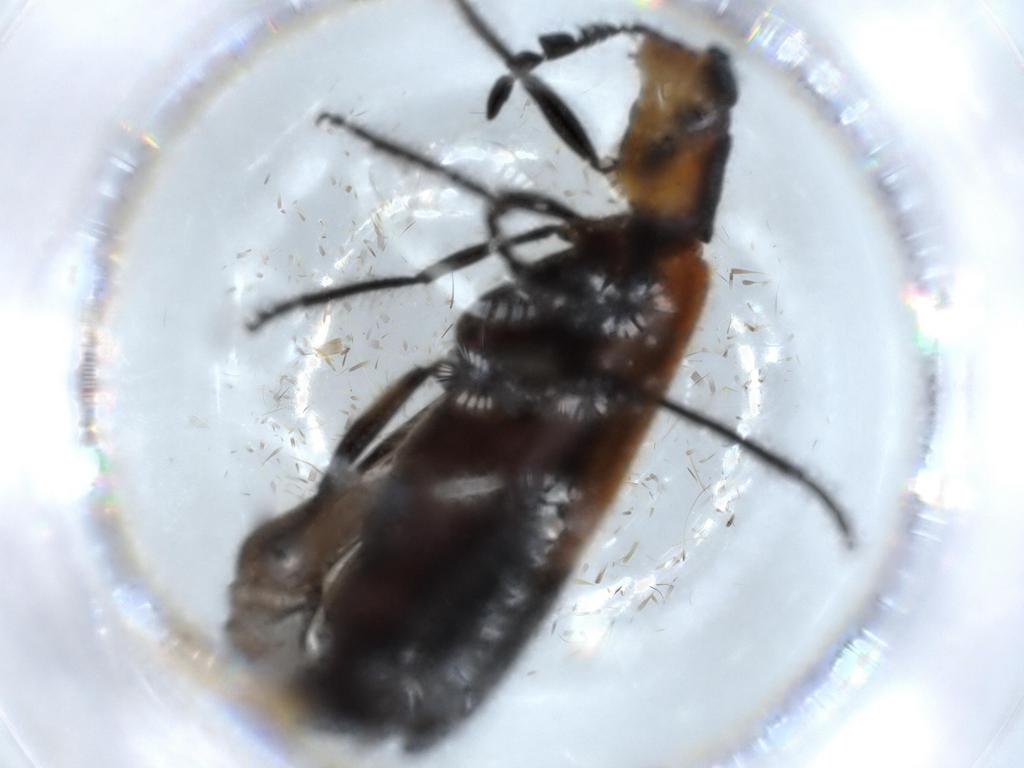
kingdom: Animalia
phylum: Arthropoda
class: Insecta
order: Coleoptera
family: Cleridae
